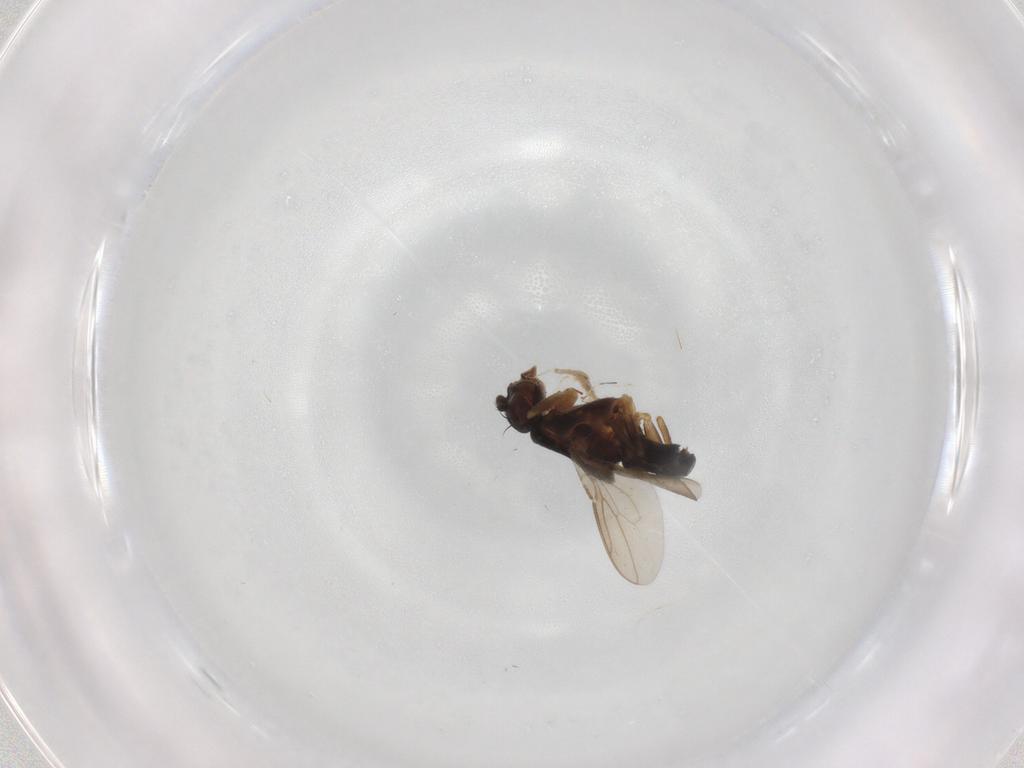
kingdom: Animalia
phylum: Arthropoda
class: Insecta
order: Diptera
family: Sphaeroceridae
